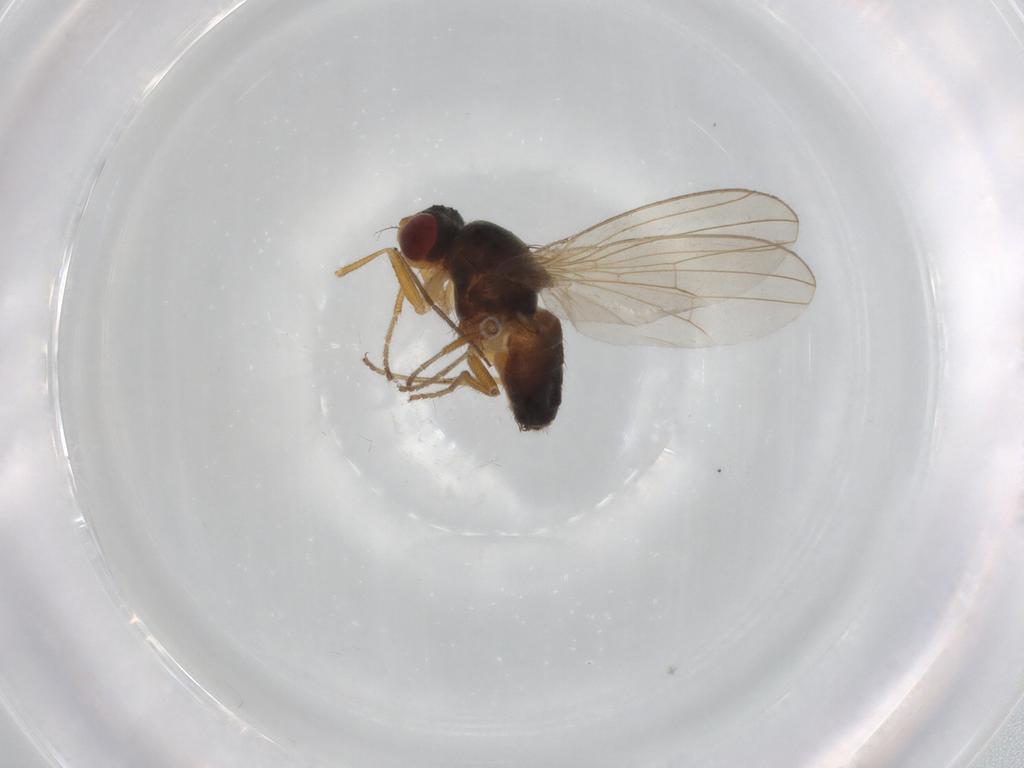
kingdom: Animalia
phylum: Arthropoda
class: Insecta
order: Diptera
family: Drosophilidae
